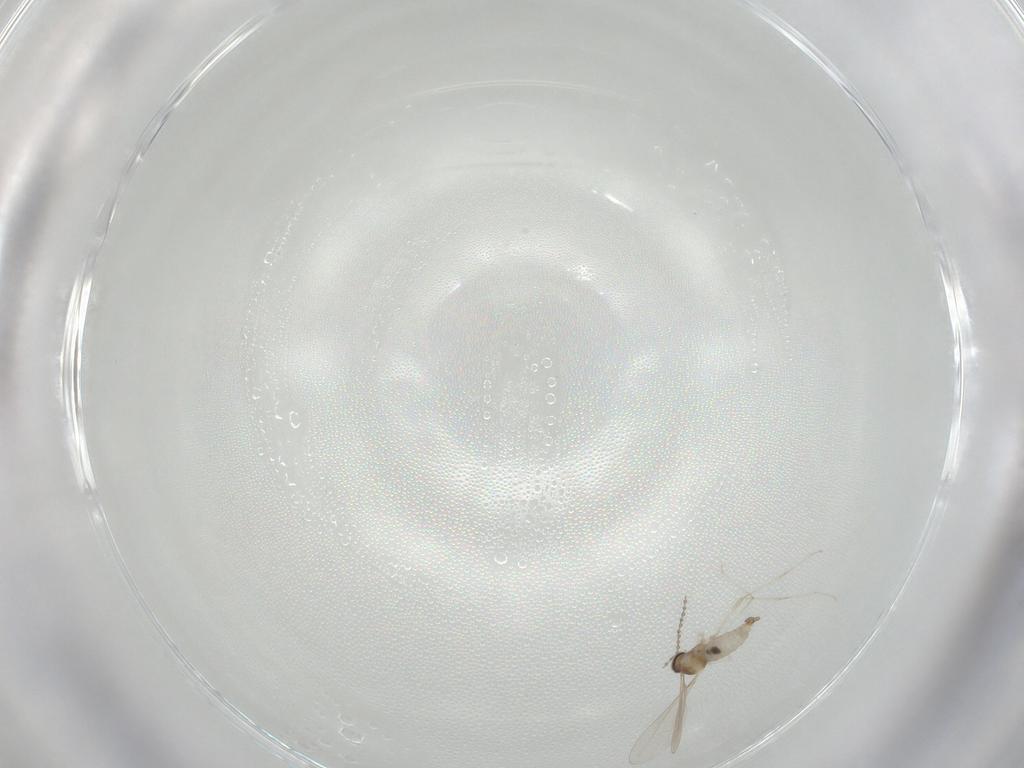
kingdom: Animalia
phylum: Arthropoda
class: Insecta
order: Diptera
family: Cecidomyiidae
